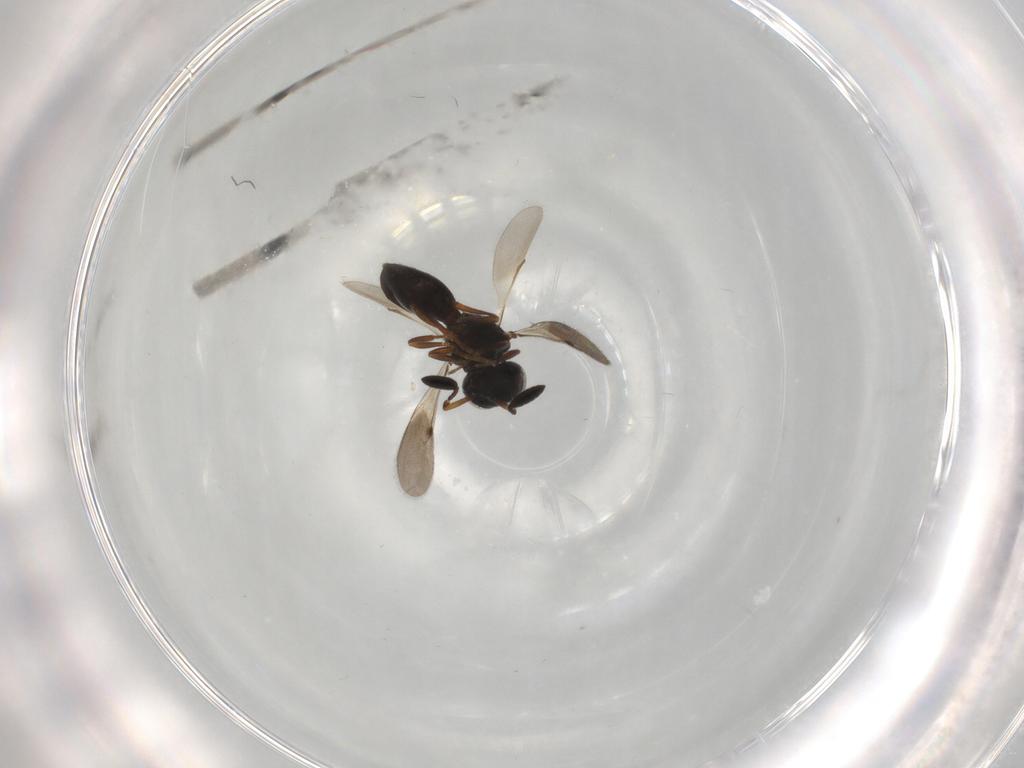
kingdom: Animalia
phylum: Arthropoda
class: Insecta
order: Hymenoptera
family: Scelionidae
